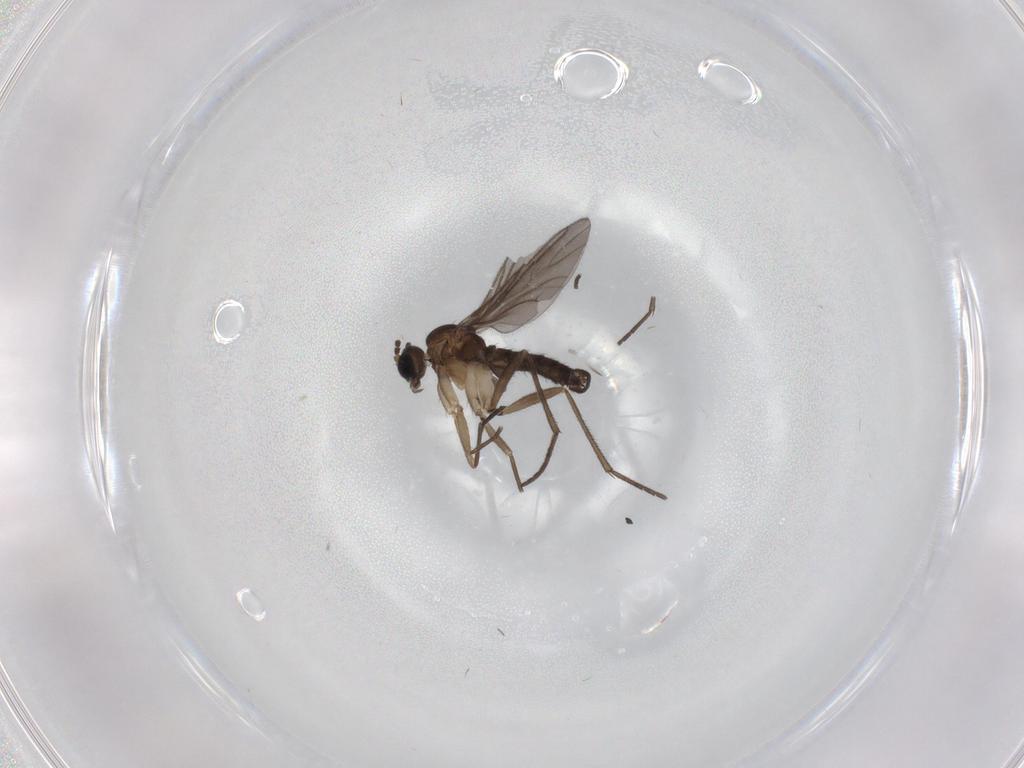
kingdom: Animalia
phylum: Arthropoda
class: Insecta
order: Diptera
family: Sciaridae
